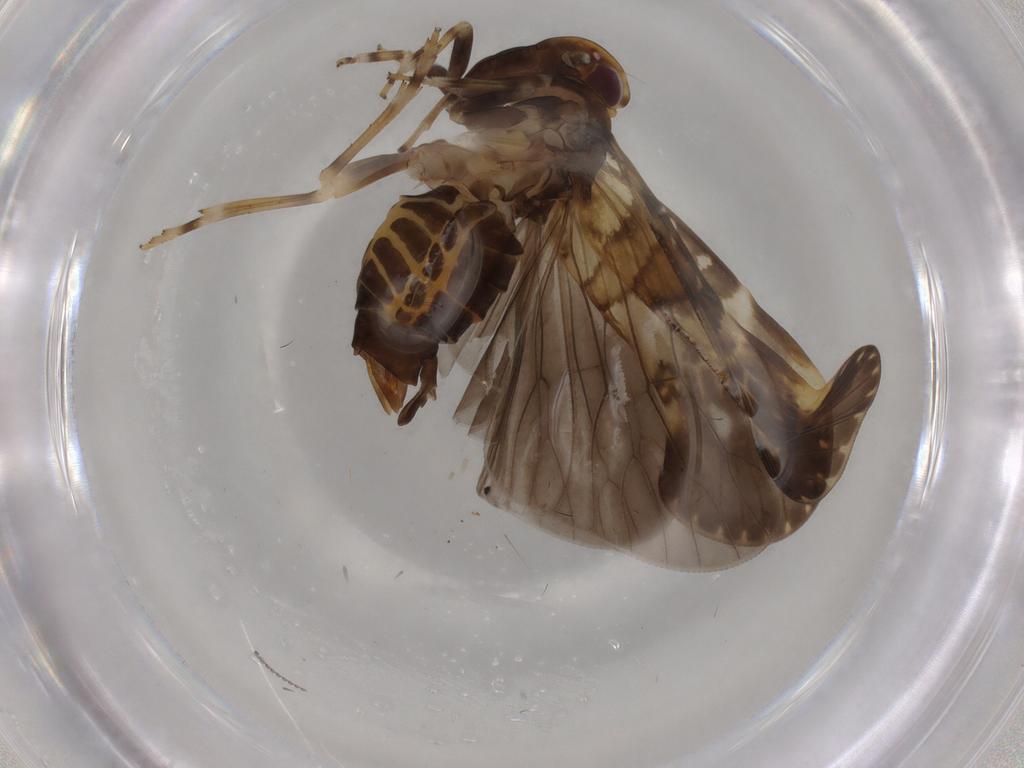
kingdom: Animalia
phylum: Arthropoda
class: Insecta
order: Hemiptera
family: Cixiidae
